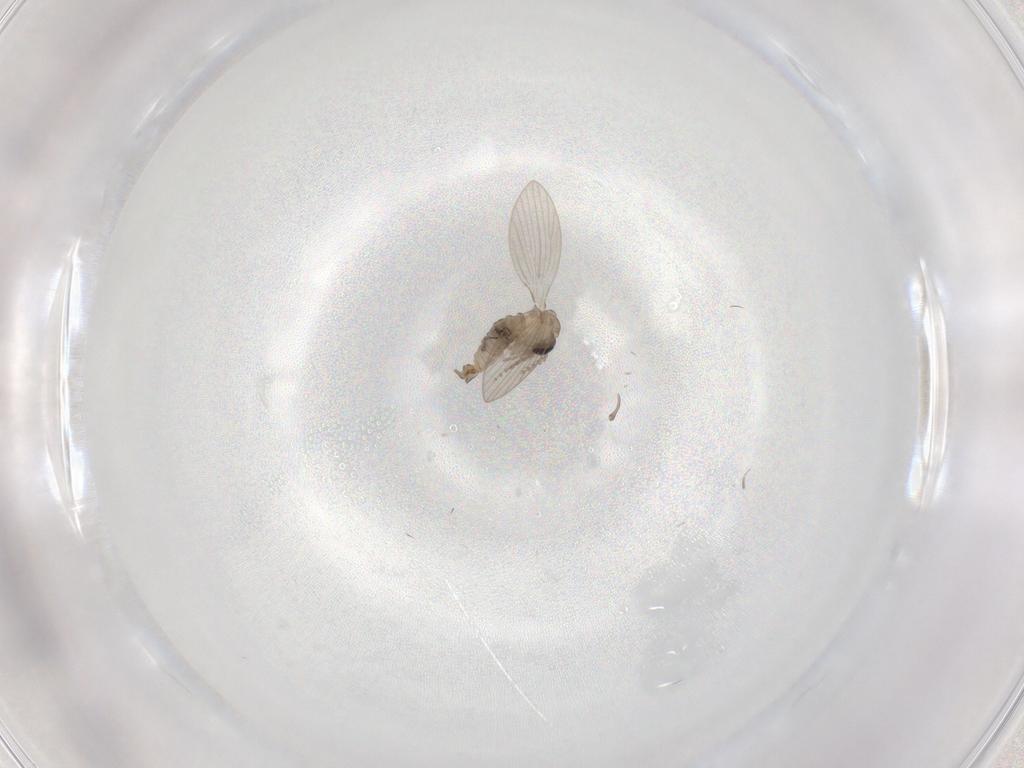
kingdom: Animalia
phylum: Arthropoda
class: Insecta
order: Diptera
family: Psychodidae
